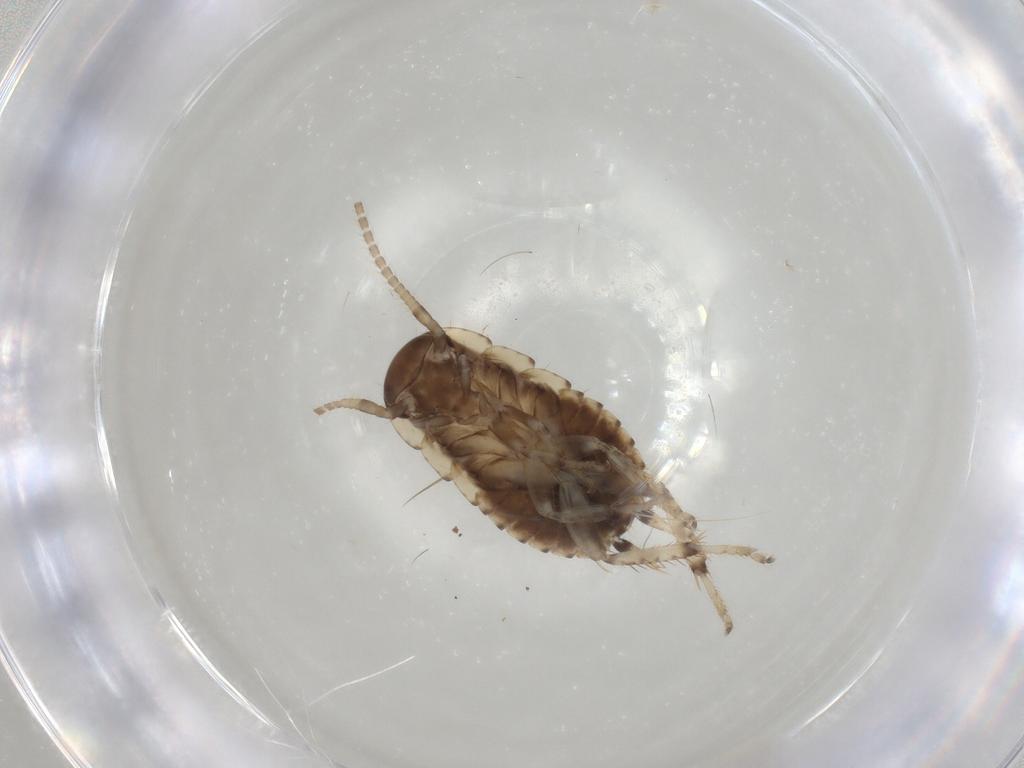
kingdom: Animalia
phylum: Arthropoda
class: Insecta
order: Blattodea
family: Blaberidae
